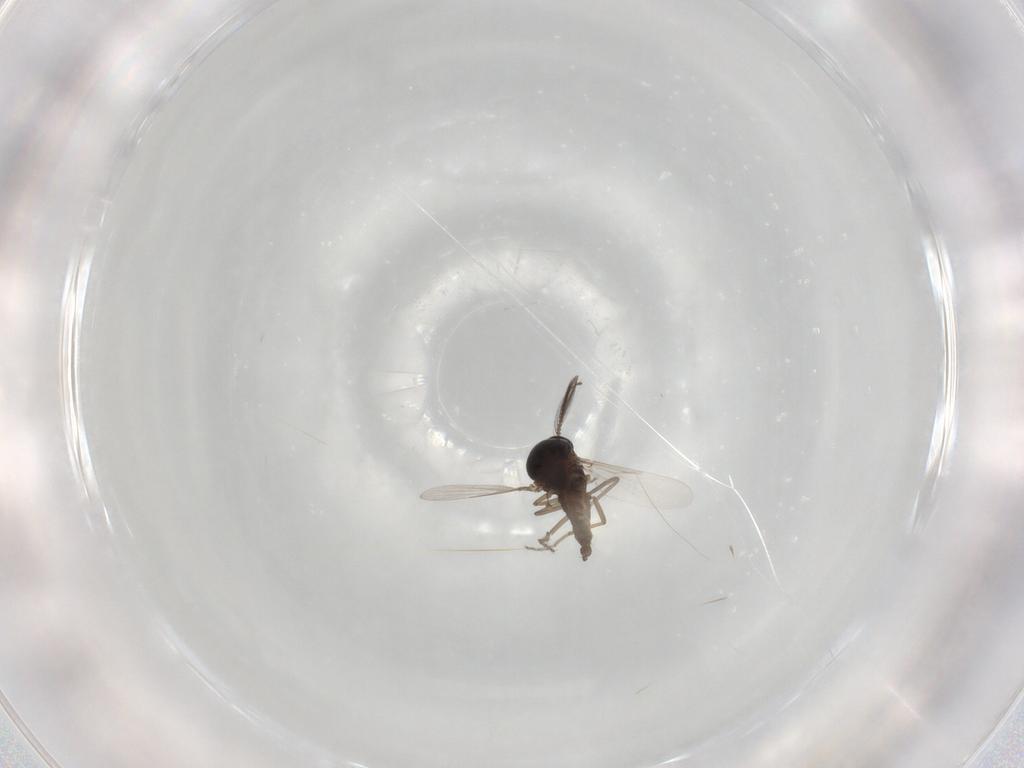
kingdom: Animalia
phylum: Arthropoda
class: Insecta
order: Diptera
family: Ceratopogonidae
